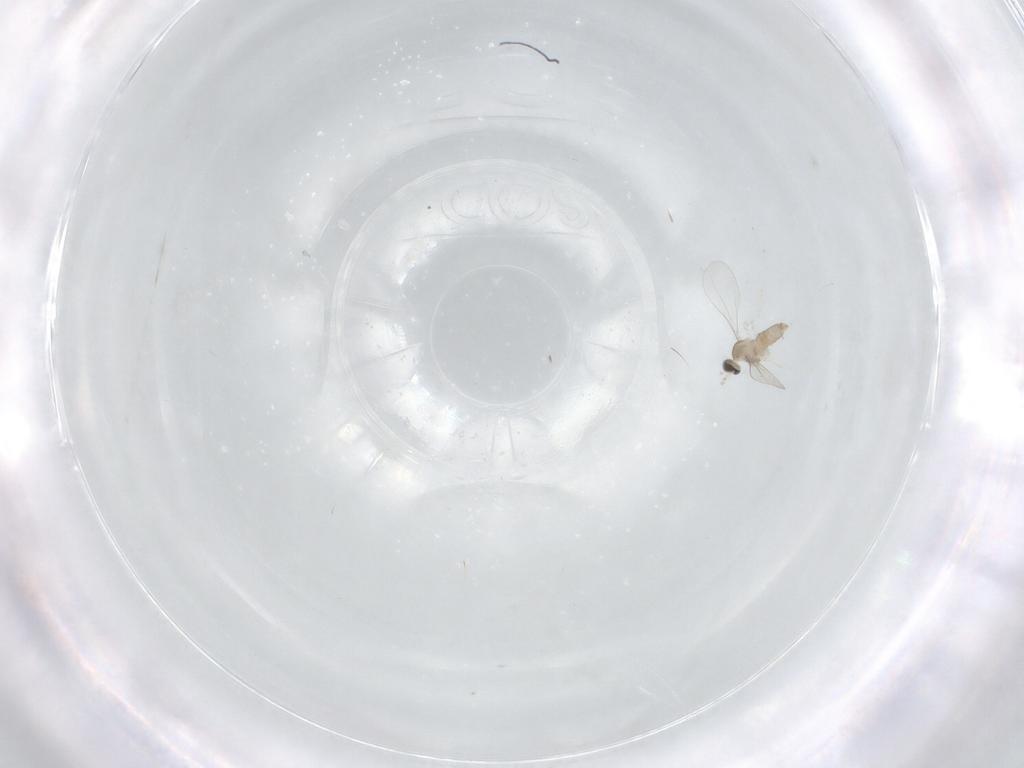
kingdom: Animalia
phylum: Arthropoda
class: Insecta
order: Diptera
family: Cecidomyiidae
